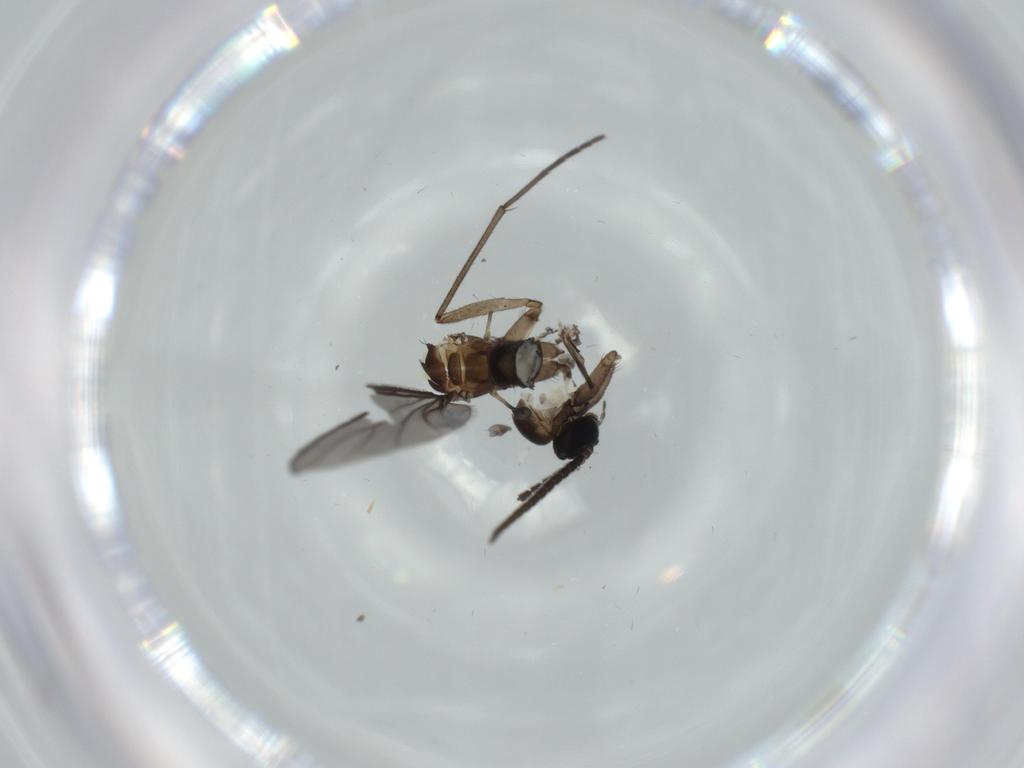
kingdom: Animalia
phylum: Arthropoda
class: Insecta
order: Diptera
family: Sciaridae
